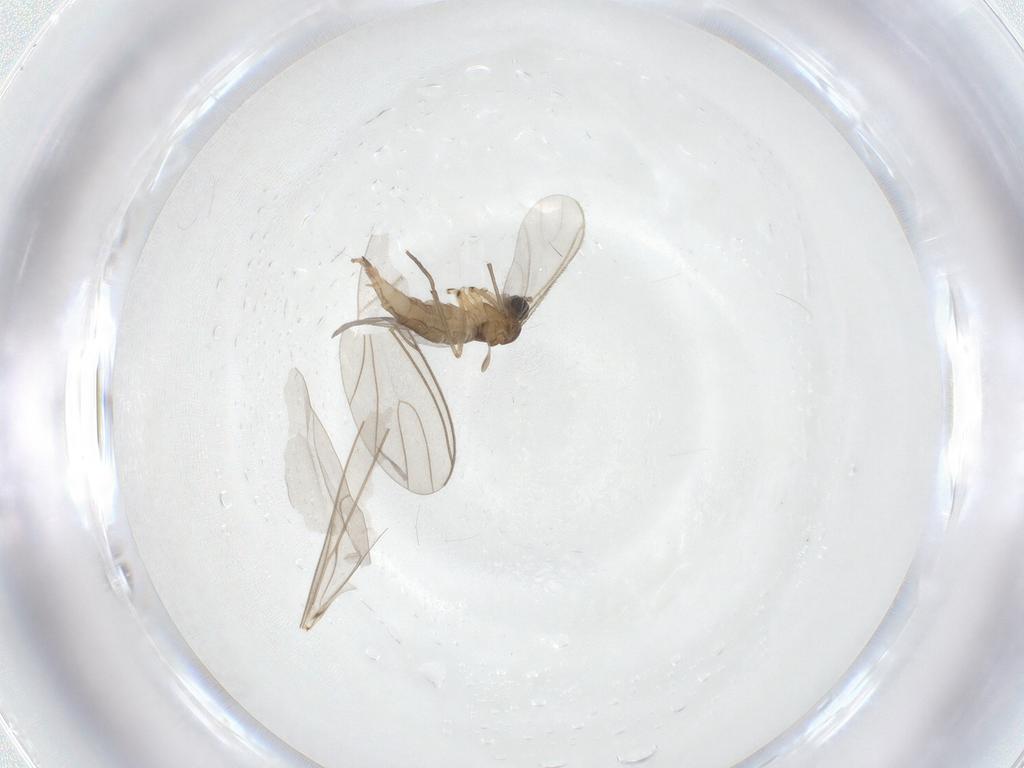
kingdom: Animalia
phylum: Arthropoda
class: Insecta
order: Diptera
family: Sciaridae
